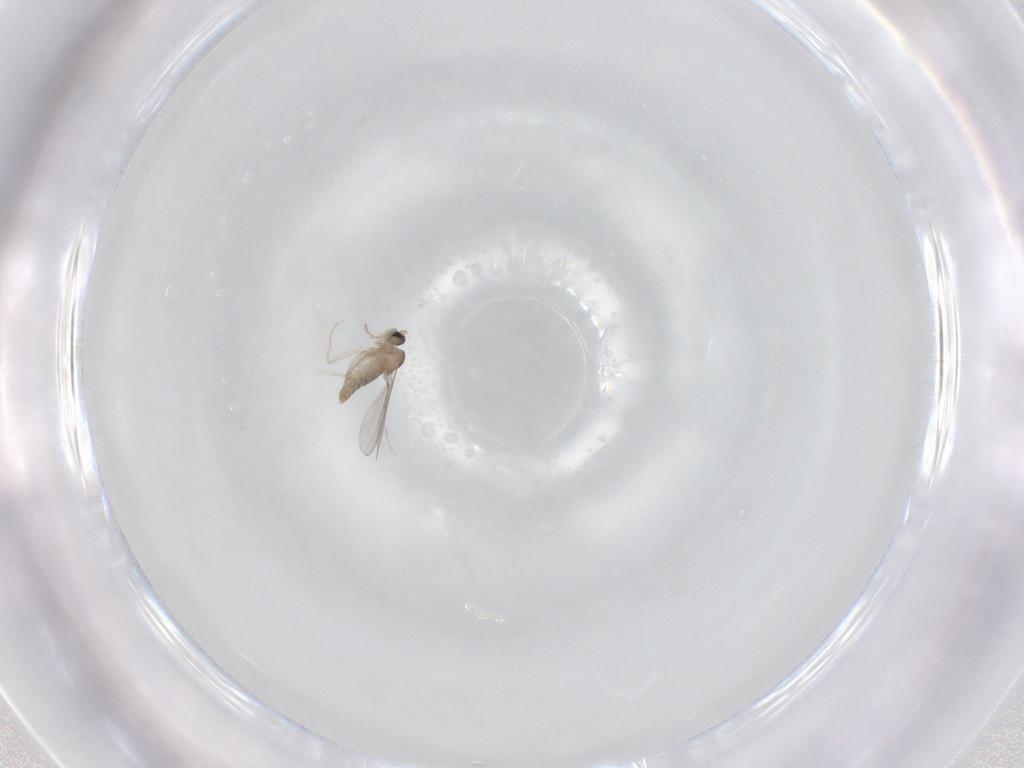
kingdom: Animalia
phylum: Arthropoda
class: Insecta
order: Diptera
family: Cecidomyiidae
